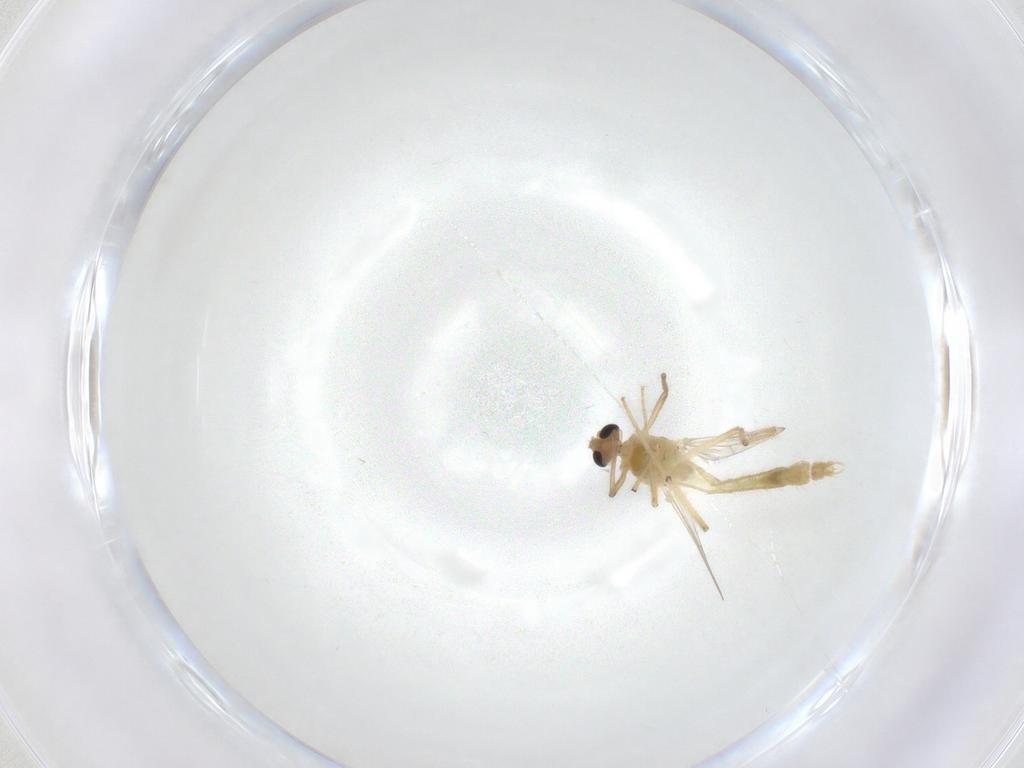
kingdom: Animalia
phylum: Arthropoda
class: Insecta
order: Diptera
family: Chironomidae
